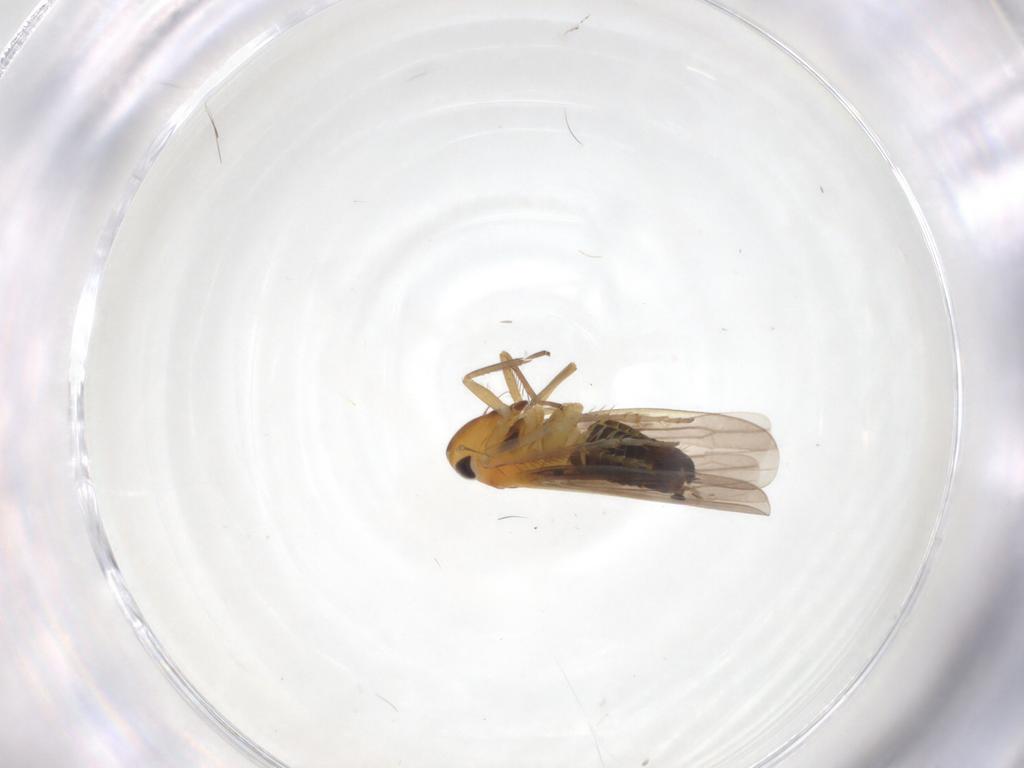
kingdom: Animalia
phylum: Arthropoda
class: Insecta
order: Hemiptera
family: Cicadellidae
